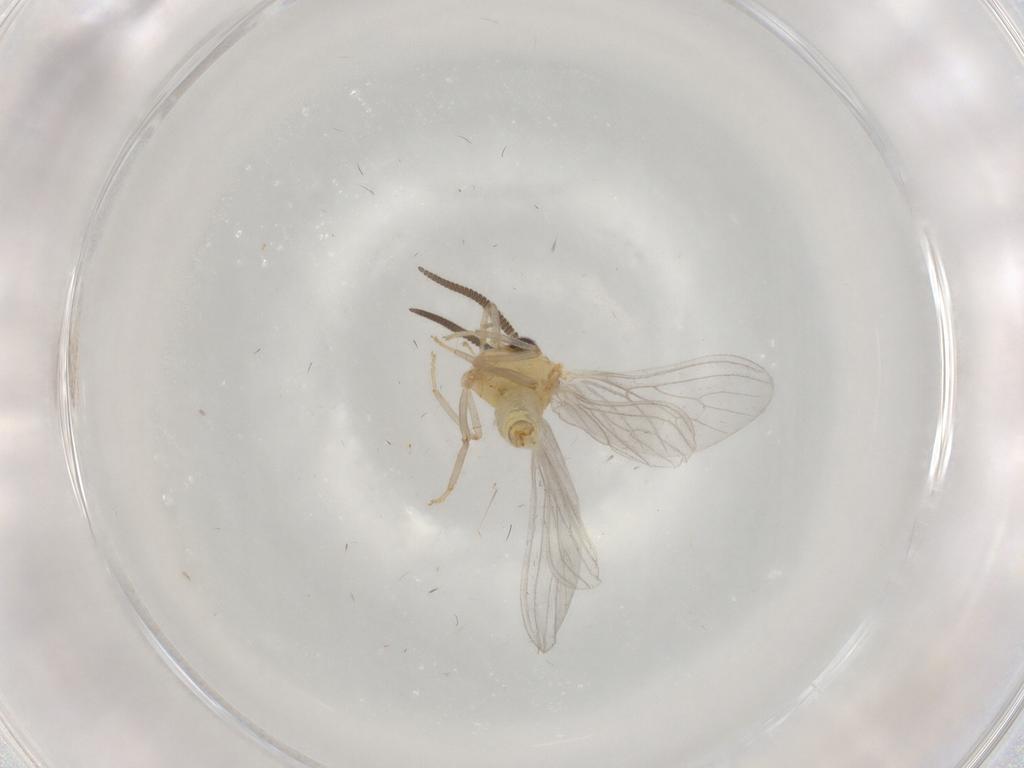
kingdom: Animalia
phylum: Arthropoda
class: Insecta
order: Neuroptera
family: Coniopterygidae
